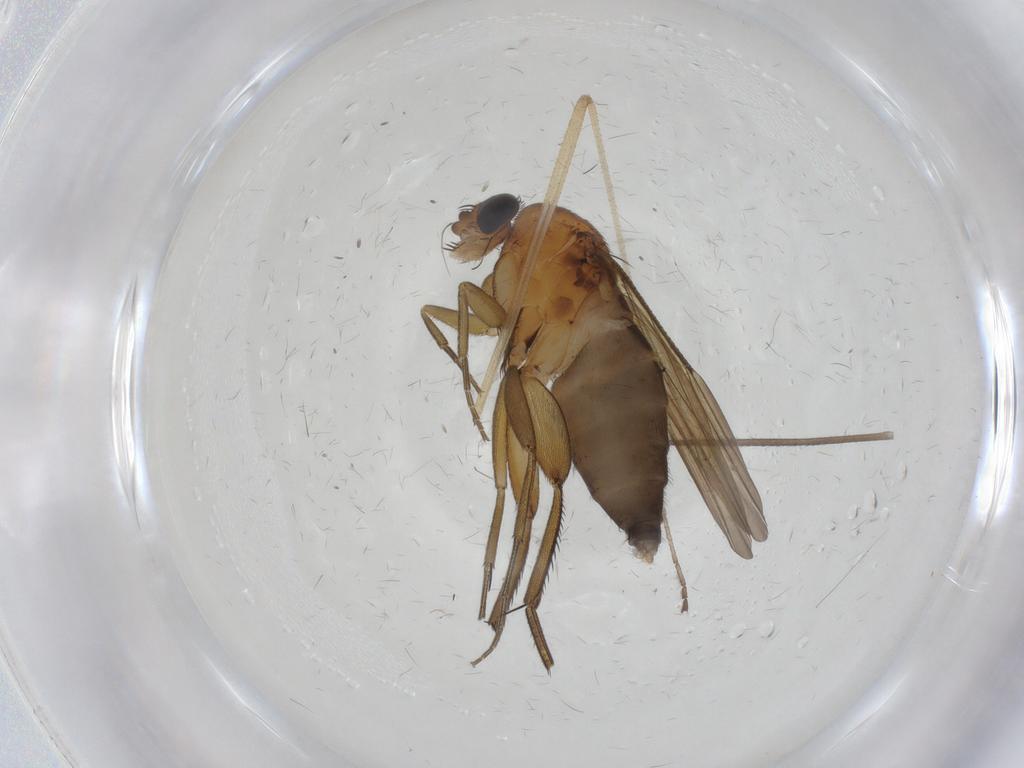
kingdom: Animalia
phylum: Arthropoda
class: Insecta
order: Diptera
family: Phoridae
